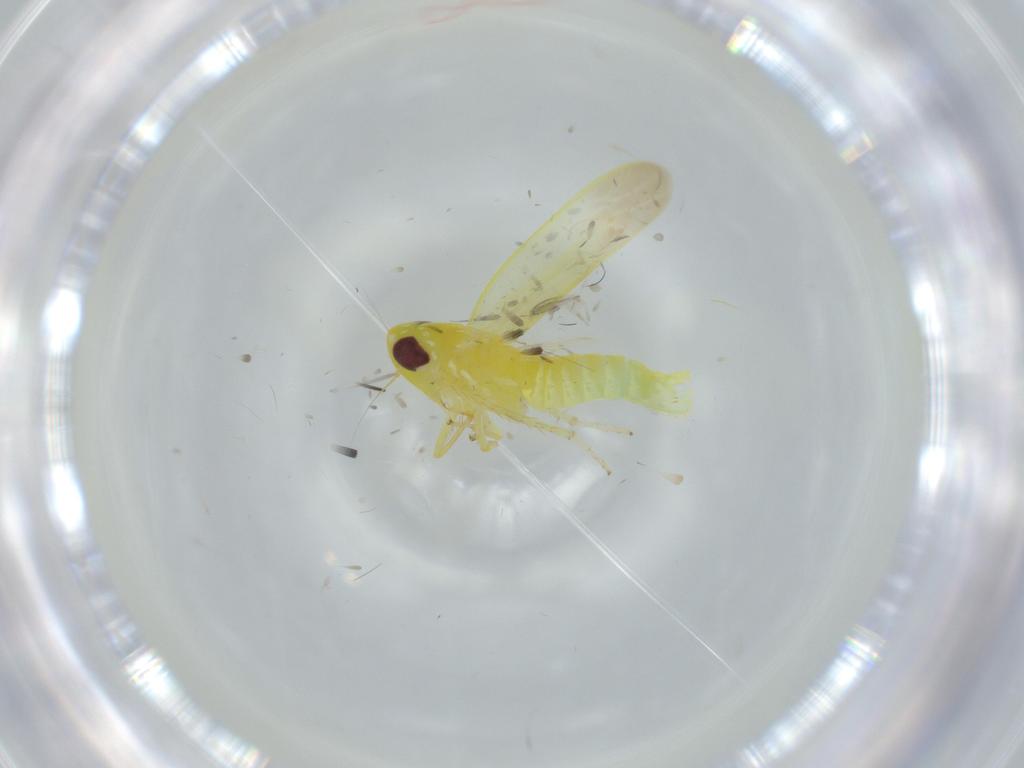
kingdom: Animalia
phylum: Arthropoda
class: Insecta
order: Hemiptera
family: Cicadellidae
